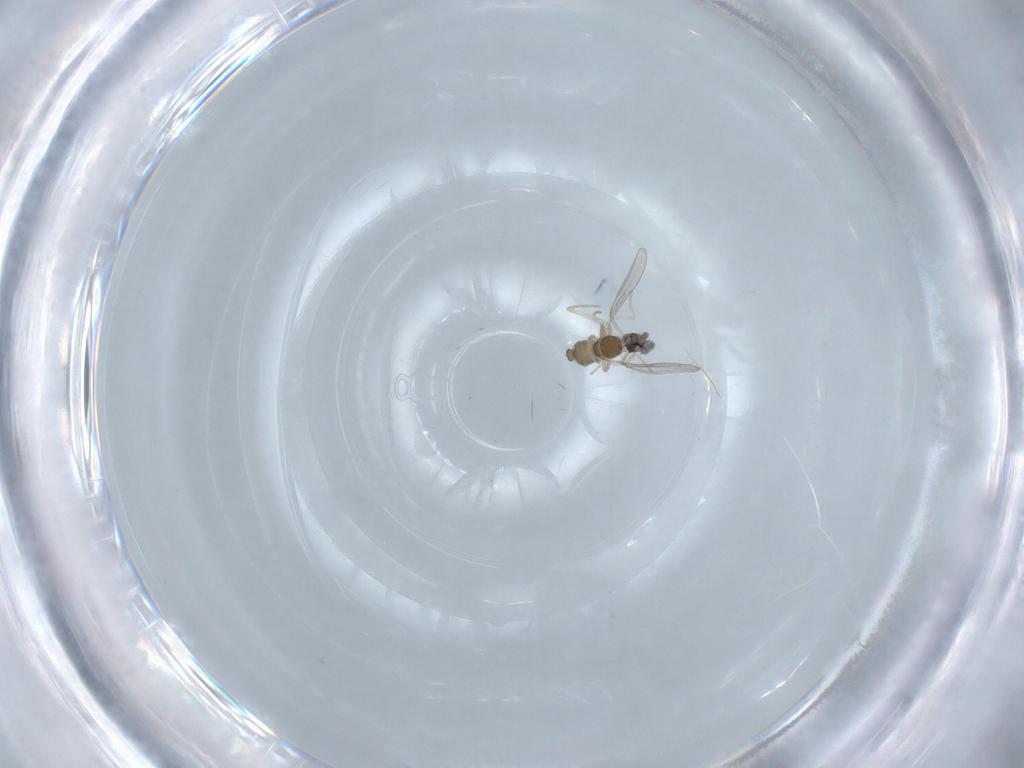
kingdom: Animalia
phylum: Arthropoda
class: Insecta
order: Diptera
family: Cecidomyiidae
